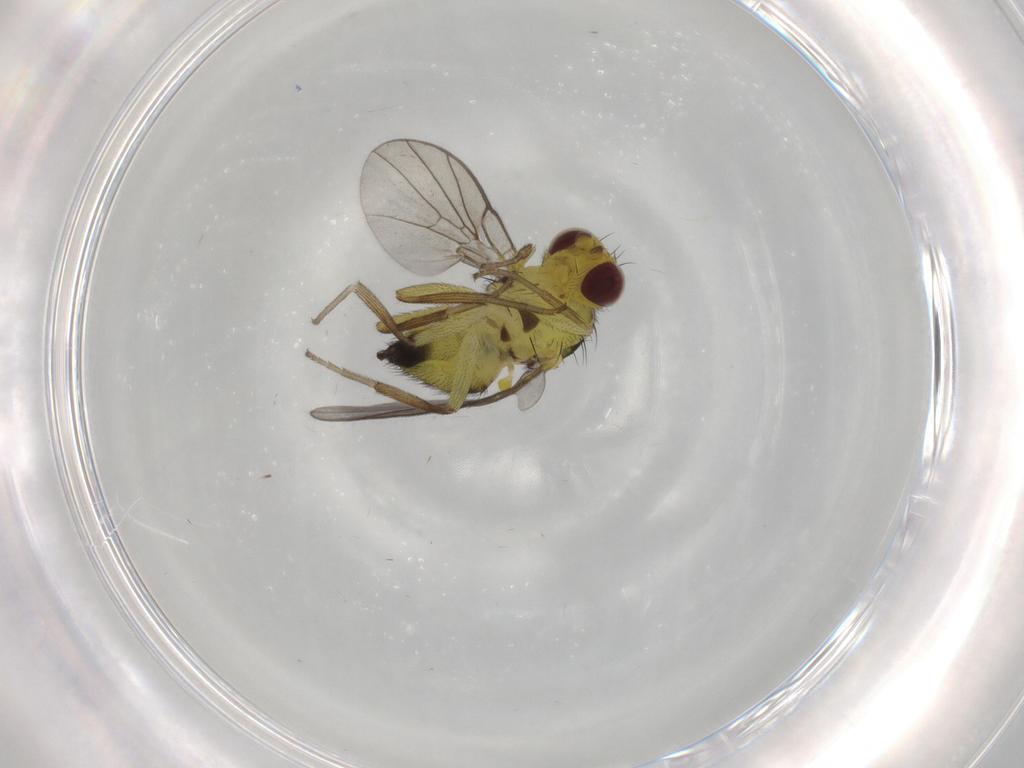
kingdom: Animalia
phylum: Arthropoda
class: Insecta
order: Diptera
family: Agromyzidae
